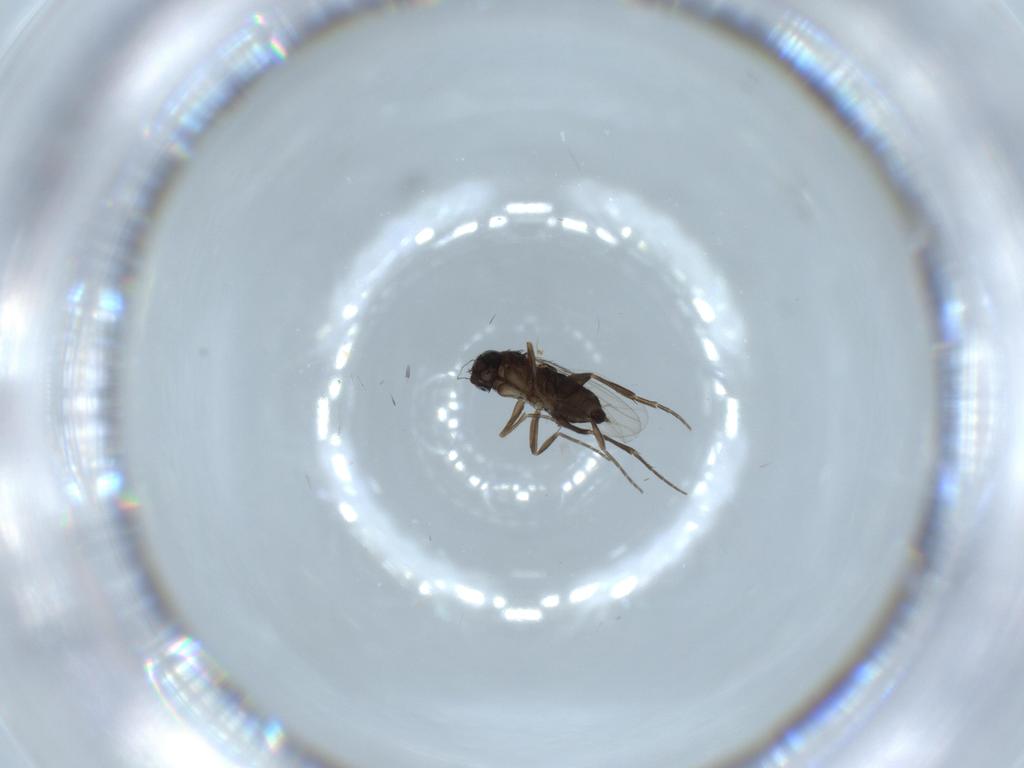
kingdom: Animalia
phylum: Arthropoda
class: Insecta
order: Diptera
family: Phoridae
